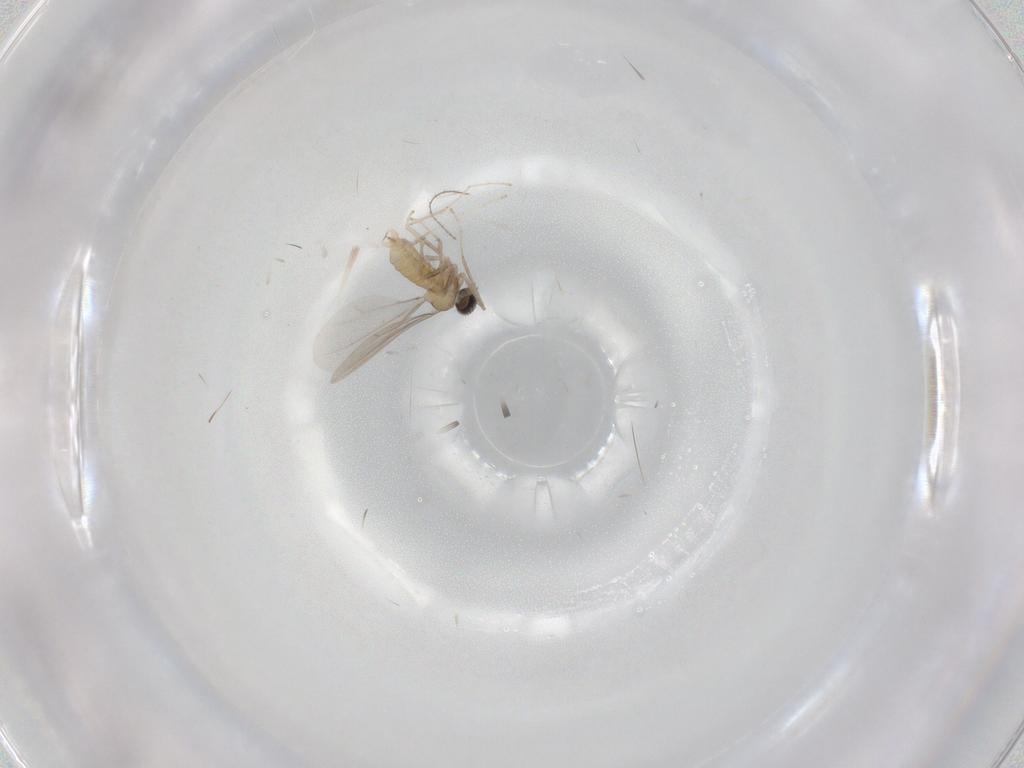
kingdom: Animalia
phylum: Arthropoda
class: Insecta
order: Diptera
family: Cecidomyiidae
